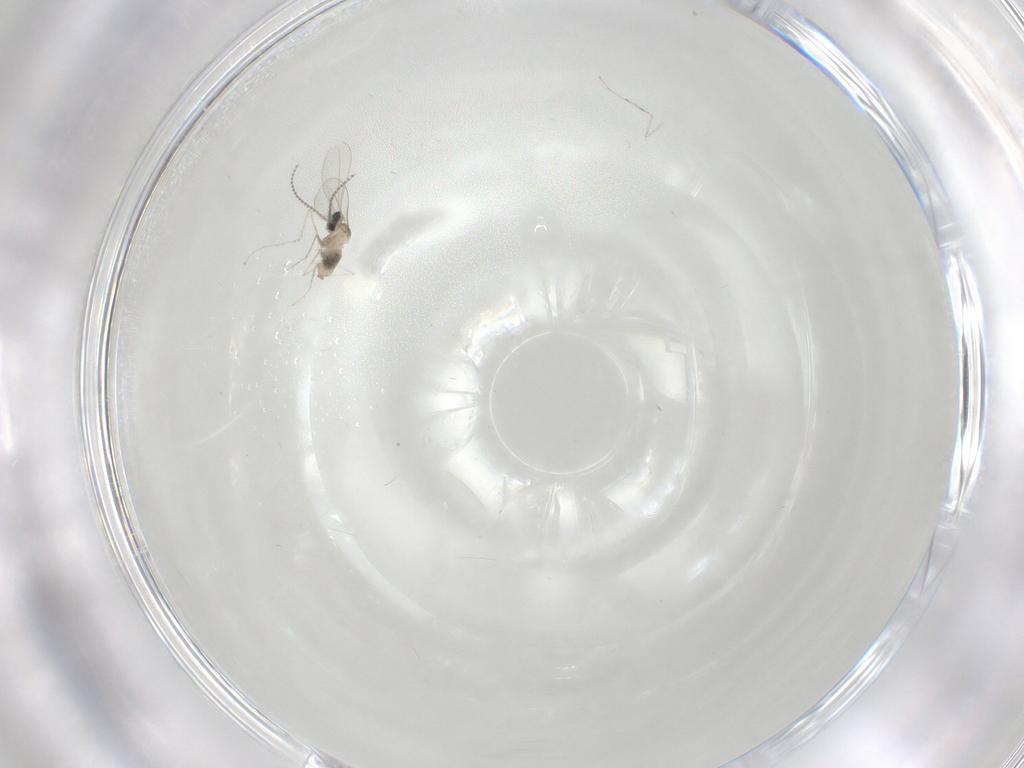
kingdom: Animalia
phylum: Arthropoda
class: Insecta
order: Diptera
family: Cecidomyiidae
